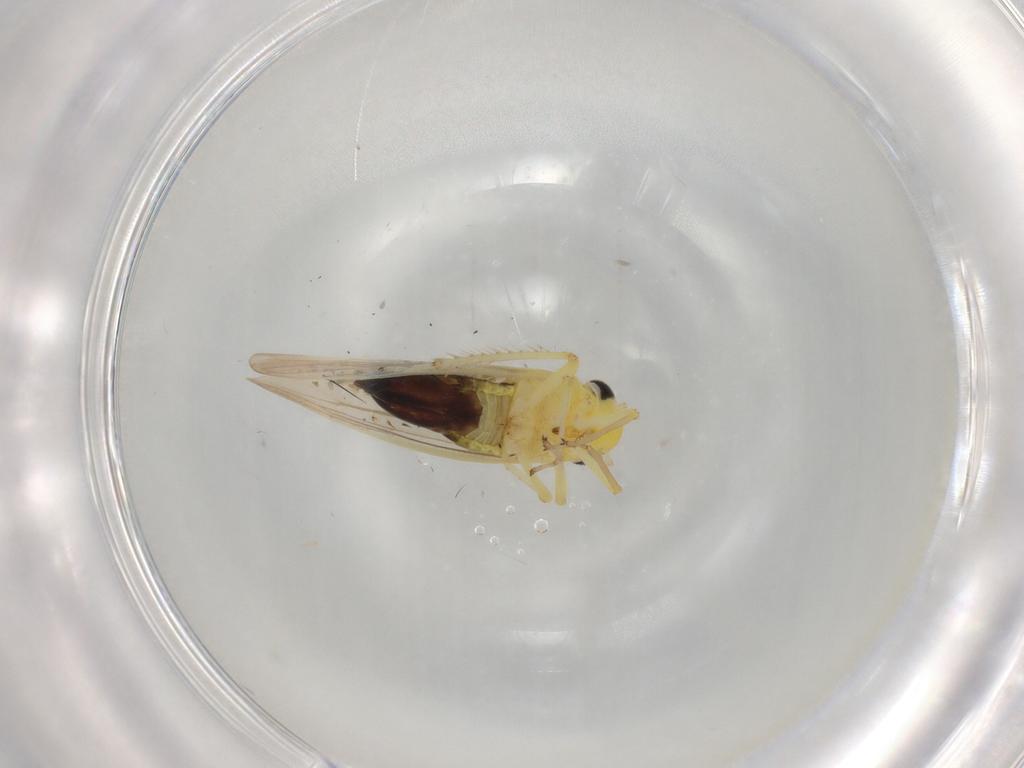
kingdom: Animalia
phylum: Arthropoda
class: Insecta
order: Hemiptera
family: Cicadellidae
